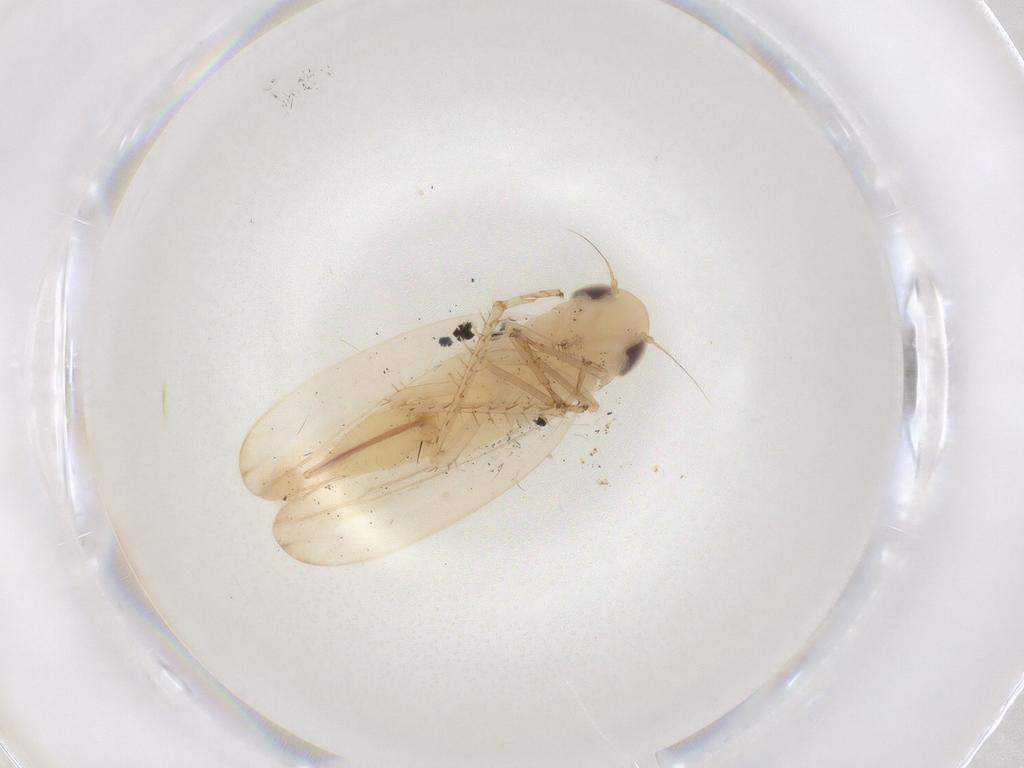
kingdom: Animalia
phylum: Arthropoda
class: Insecta
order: Hemiptera
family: Cicadellidae
